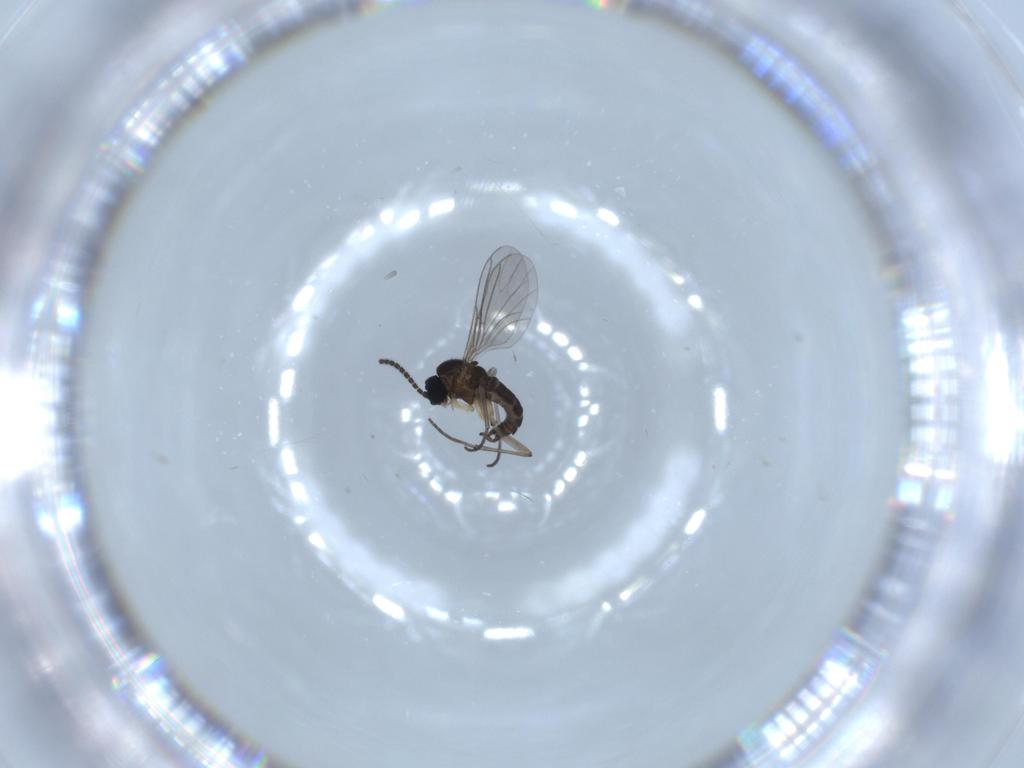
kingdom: Animalia
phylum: Arthropoda
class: Insecta
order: Diptera
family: Sciaridae
